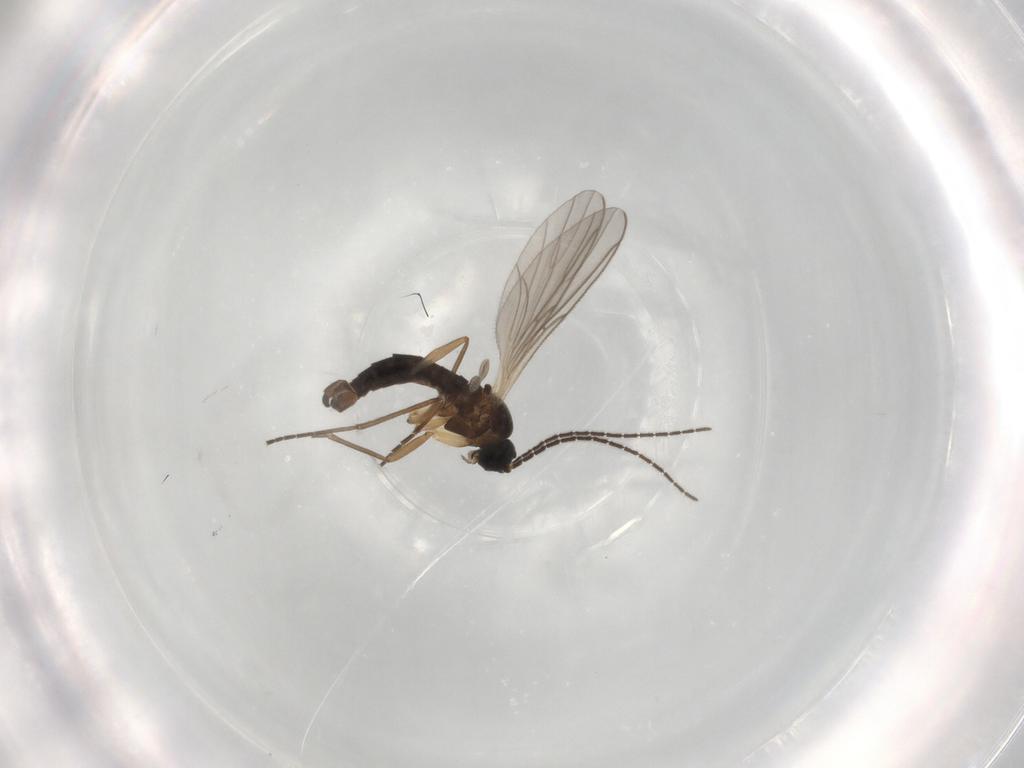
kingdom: Animalia
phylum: Arthropoda
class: Insecta
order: Diptera
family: Sciaridae
